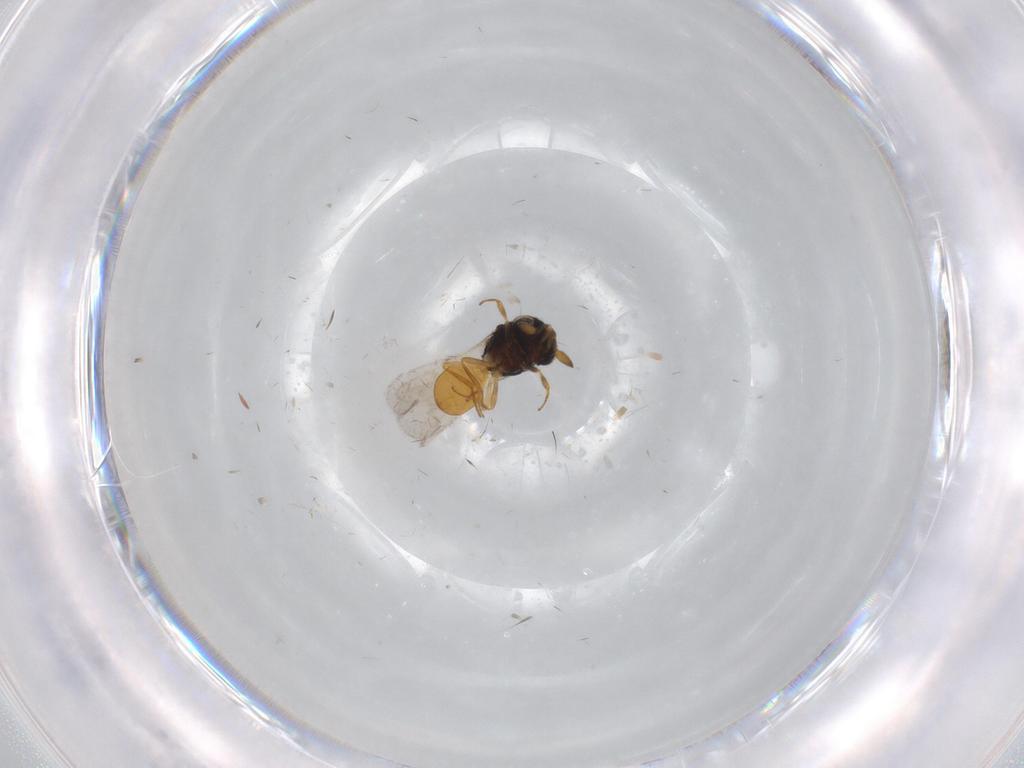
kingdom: Animalia
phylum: Arthropoda
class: Insecta
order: Hymenoptera
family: Scelionidae
